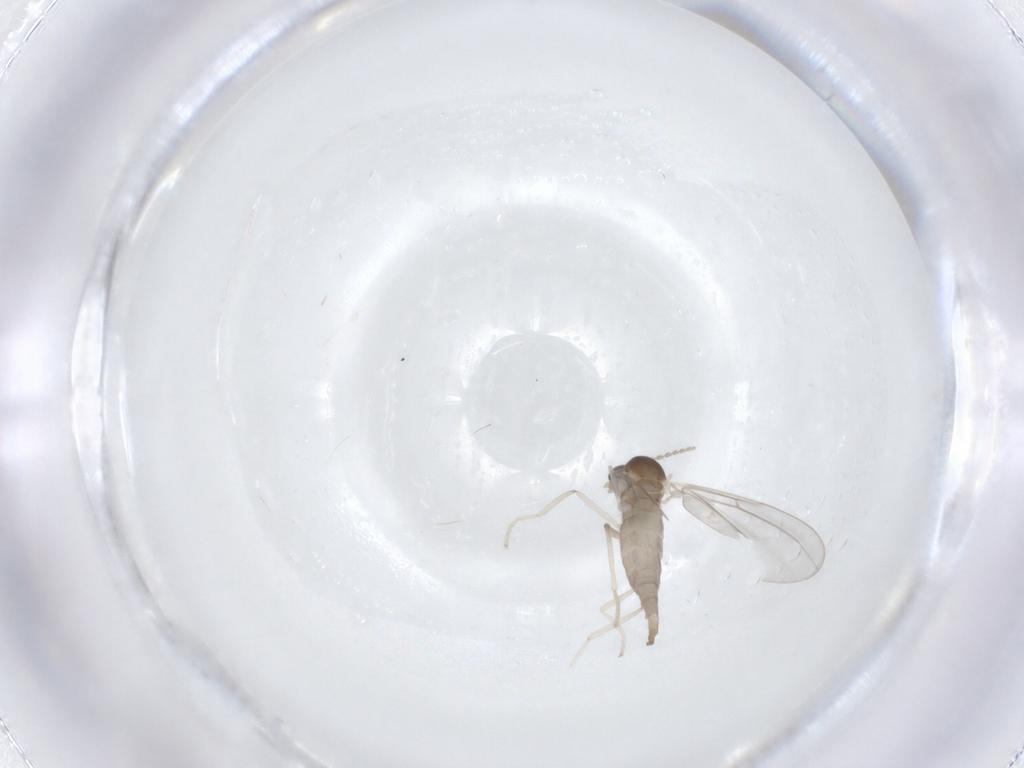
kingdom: Animalia
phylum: Arthropoda
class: Insecta
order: Diptera
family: Cecidomyiidae
